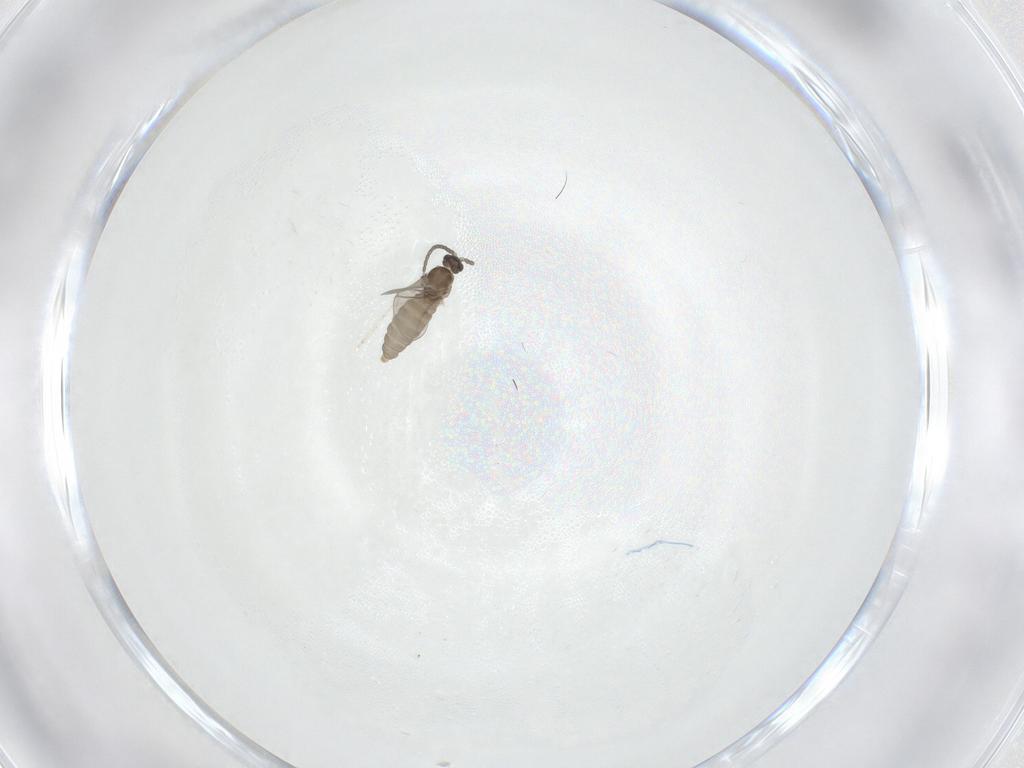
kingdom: Animalia
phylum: Arthropoda
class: Insecta
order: Diptera
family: Cecidomyiidae
